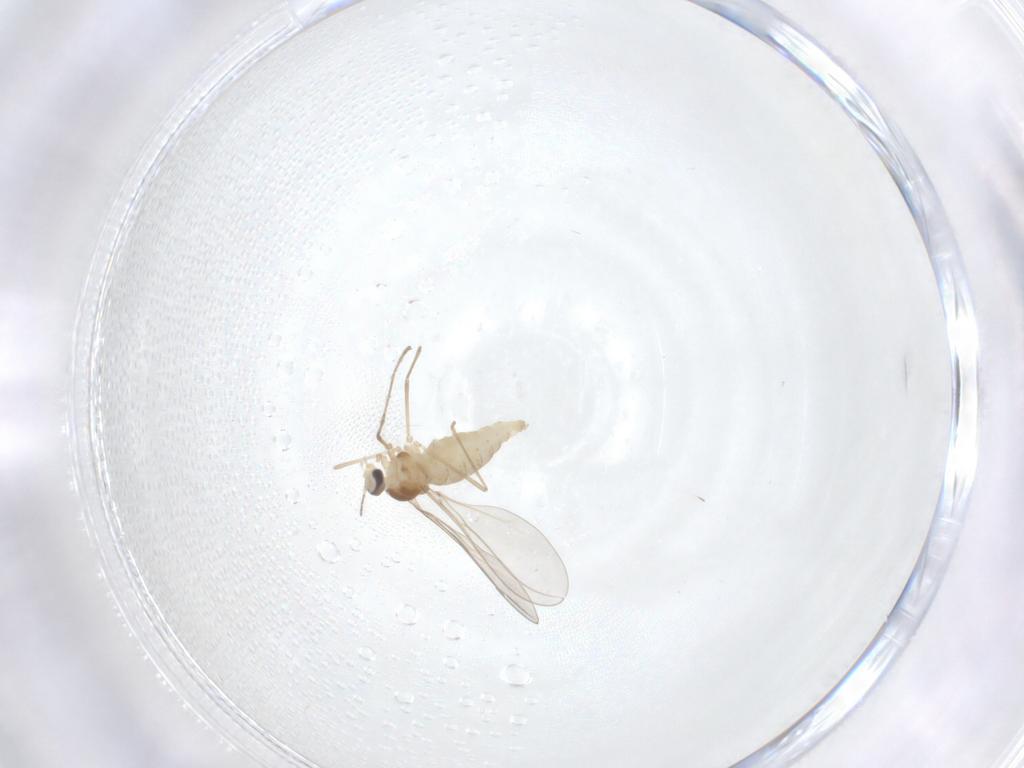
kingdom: Animalia
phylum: Arthropoda
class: Insecta
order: Diptera
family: Cecidomyiidae
